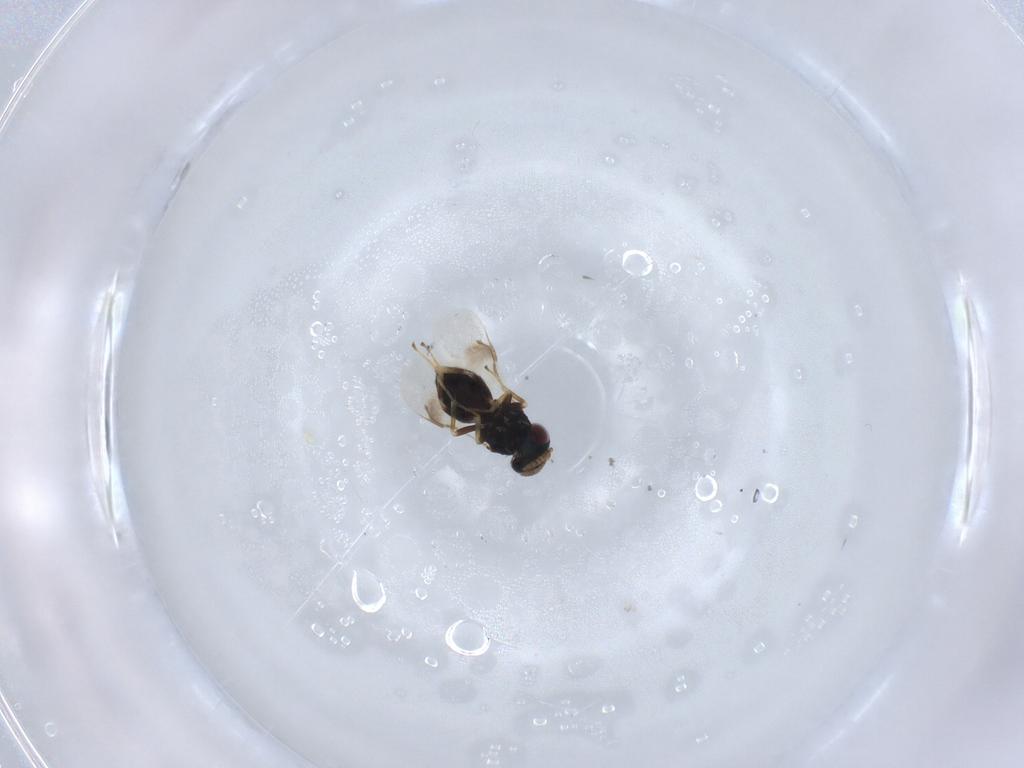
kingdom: Animalia
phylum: Arthropoda
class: Insecta
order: Hymenoptera
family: Pteromalidae
